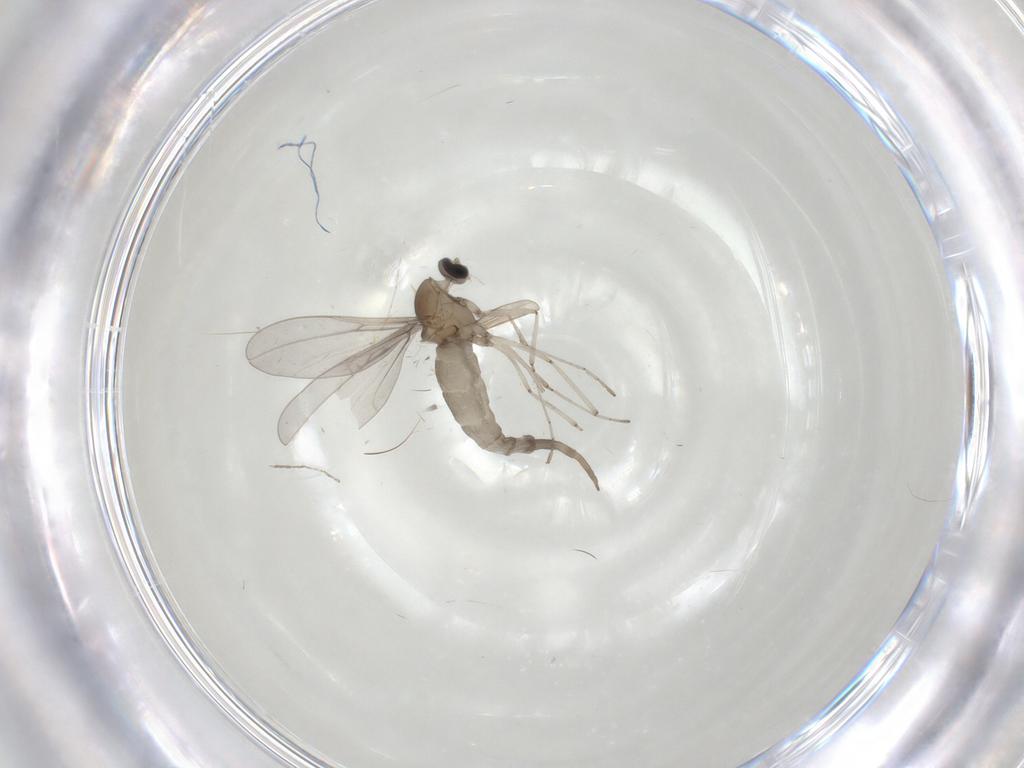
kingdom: Animalia
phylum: Arthropoda
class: Insecta
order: Diptera
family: Cecidomyiidae
